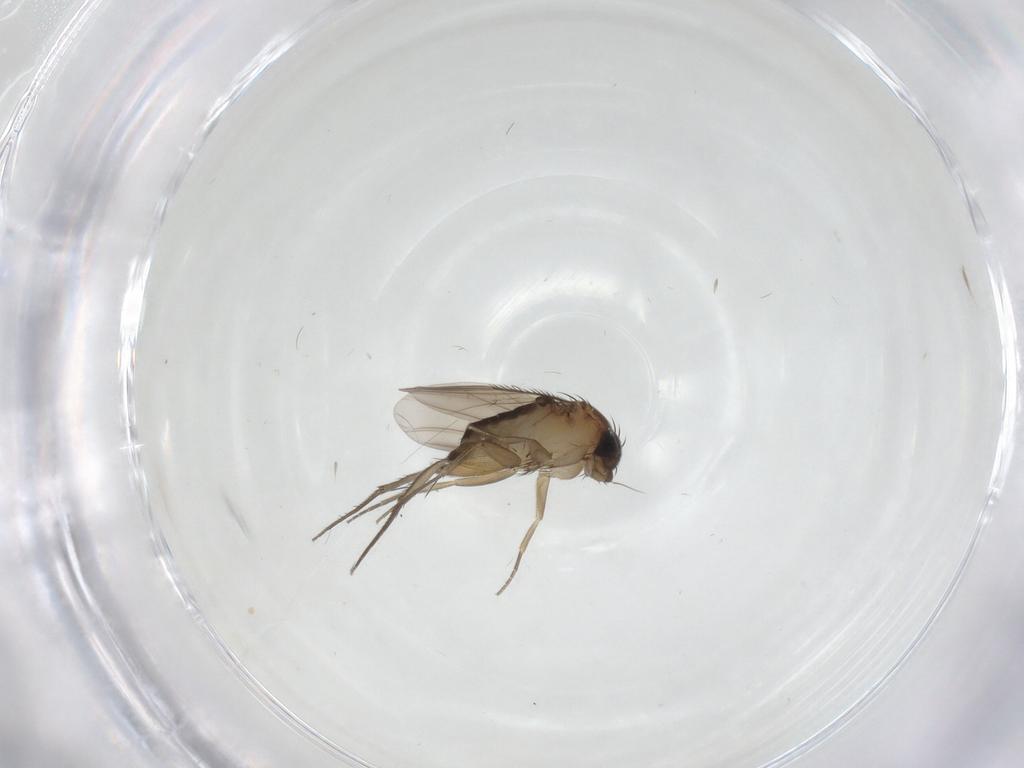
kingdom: Animalia
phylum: Arthropoda
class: Insecta
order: Diptera
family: Phoridae
